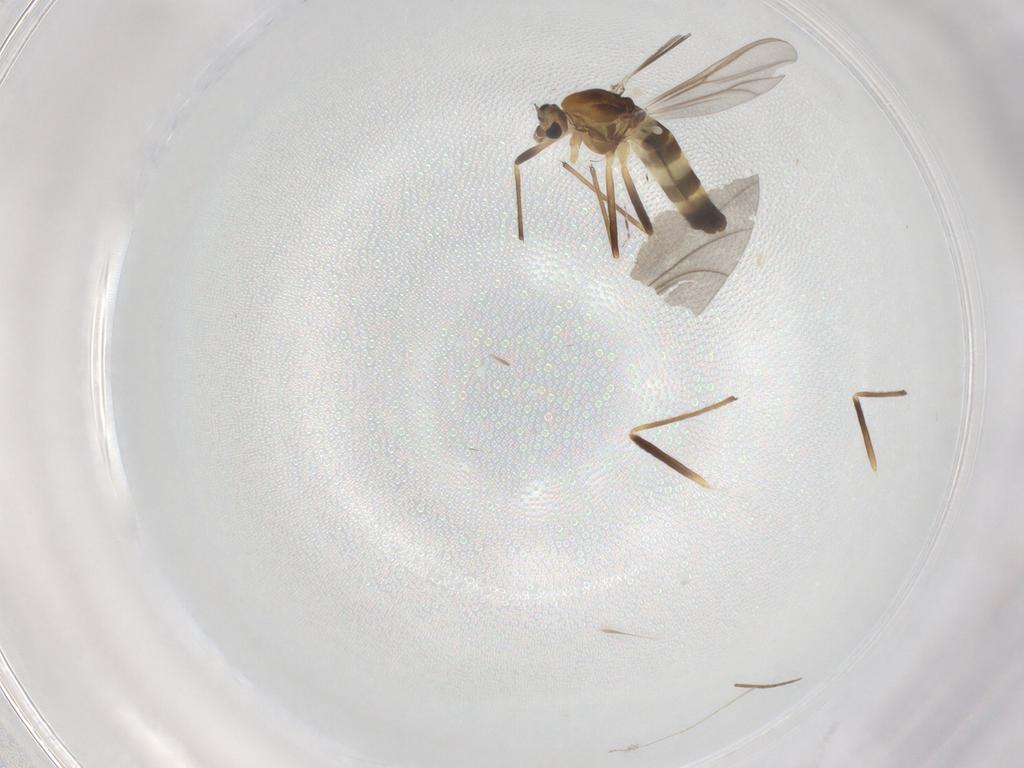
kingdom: Animalia
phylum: Arthropoda
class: Insecta
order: Diptera
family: Chironomidae
